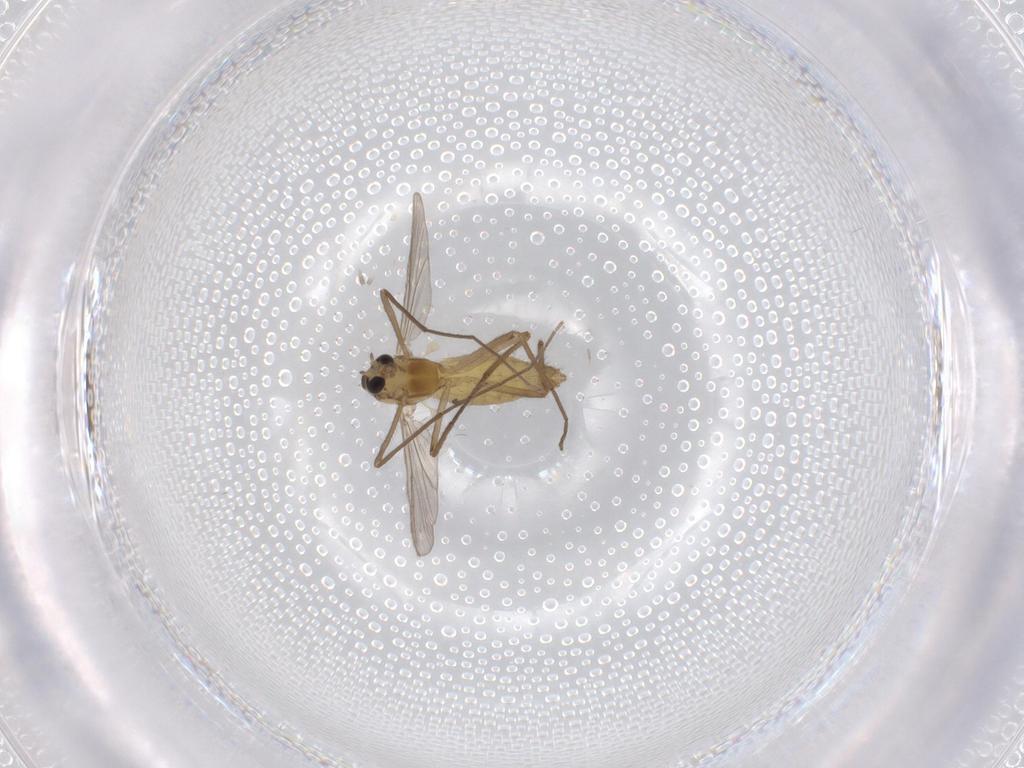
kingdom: Animalia
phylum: Arthropoda
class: Insecta
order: Diptera
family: Chironomidae
